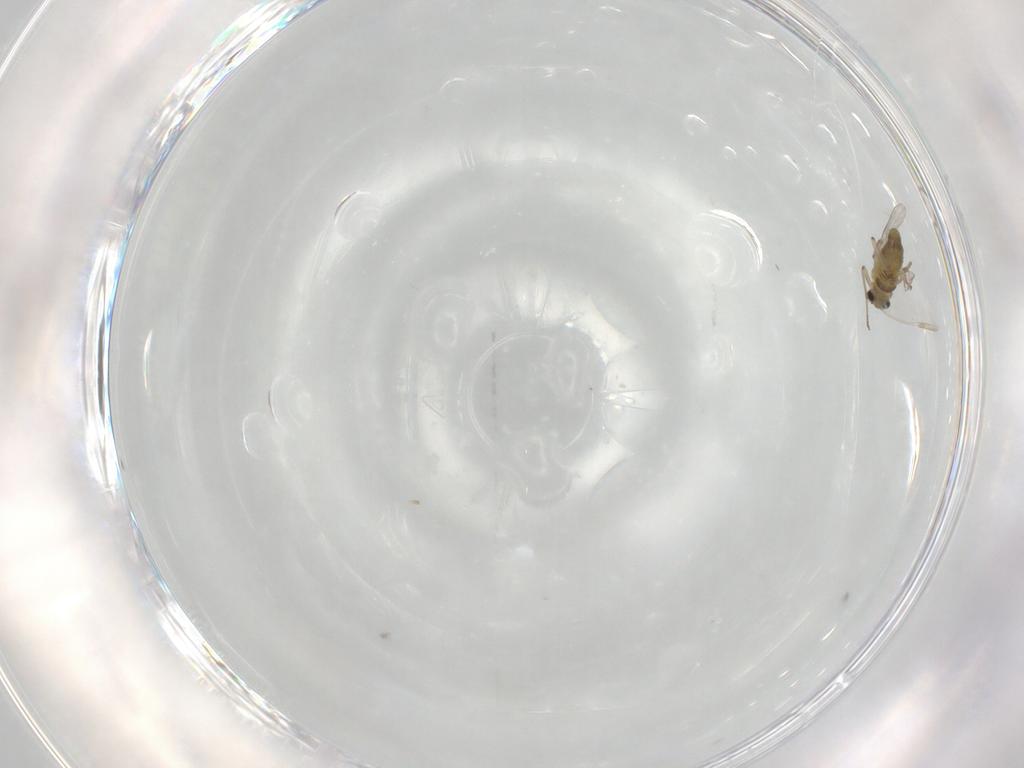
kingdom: Animalia
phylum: Arthropoda
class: Insecta
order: Diptera
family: Chironomidae
